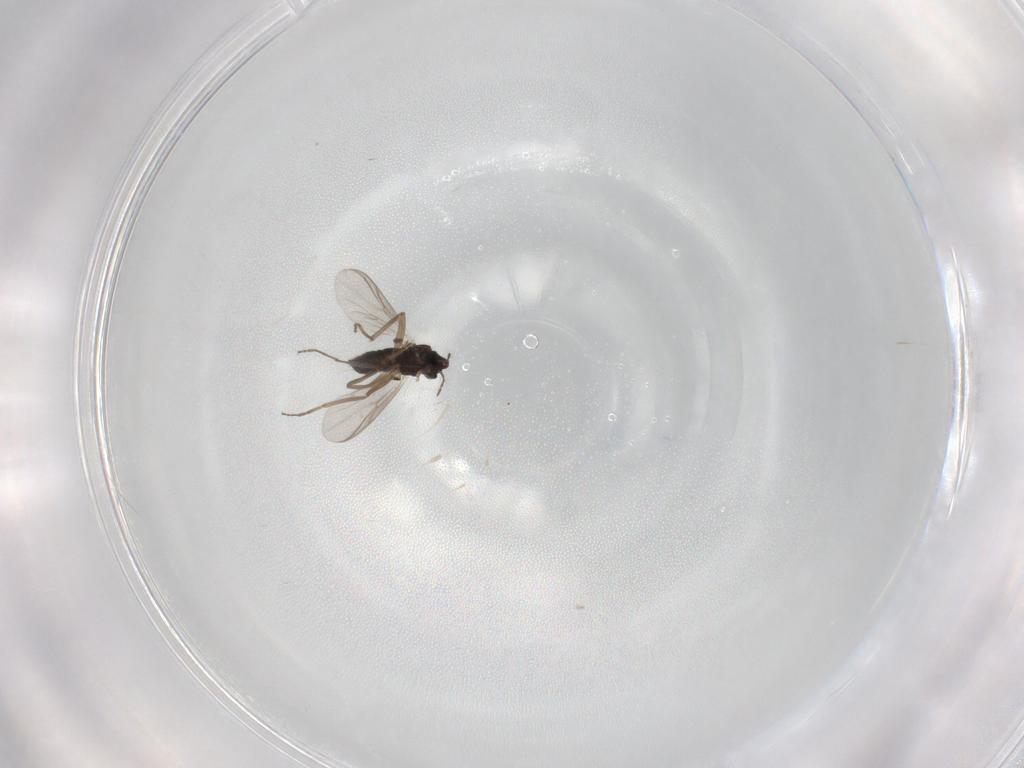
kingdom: Animalia
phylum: Arthropoda
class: Insecta
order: Diptera
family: Chironomidae
